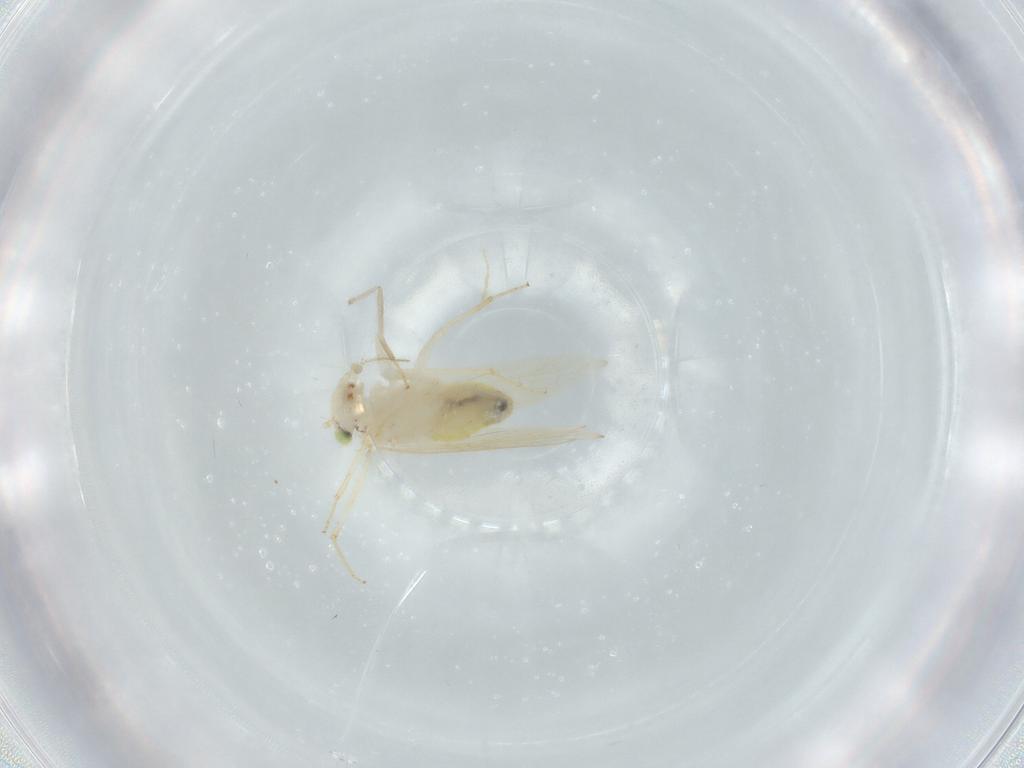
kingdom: Animalia
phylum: Arthropoda
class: Insecta
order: Psocodea
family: Lepidopsocidae
